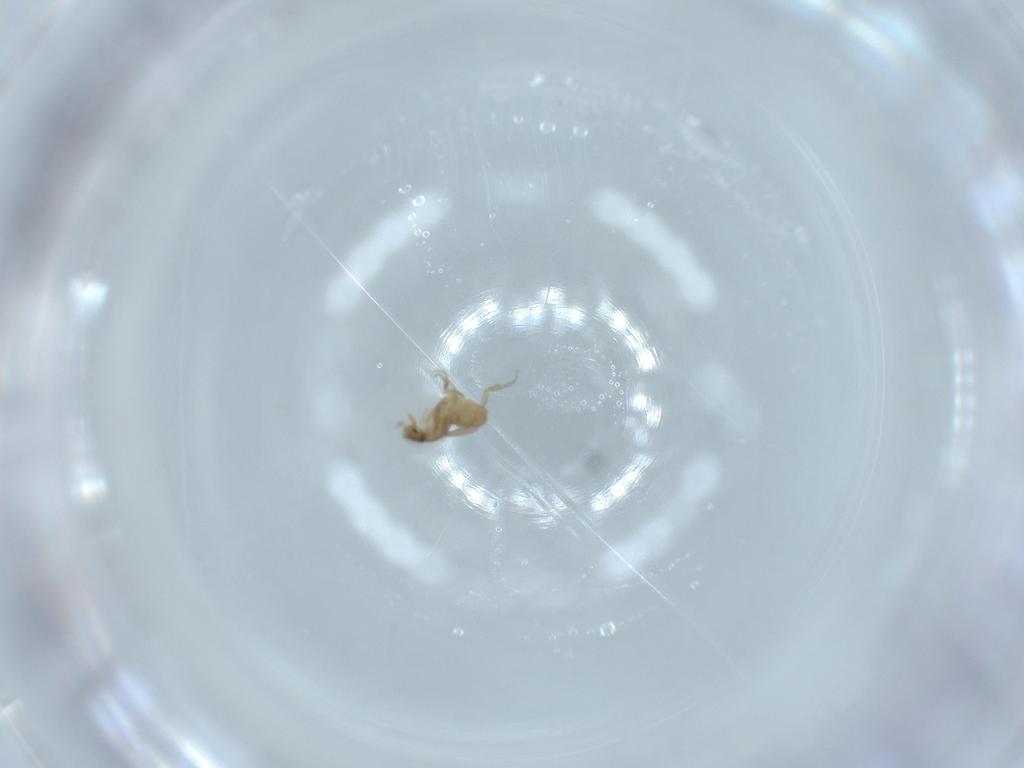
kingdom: Animalia
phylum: Arthropoda
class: Insecta
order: Diptera
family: Phoridae
